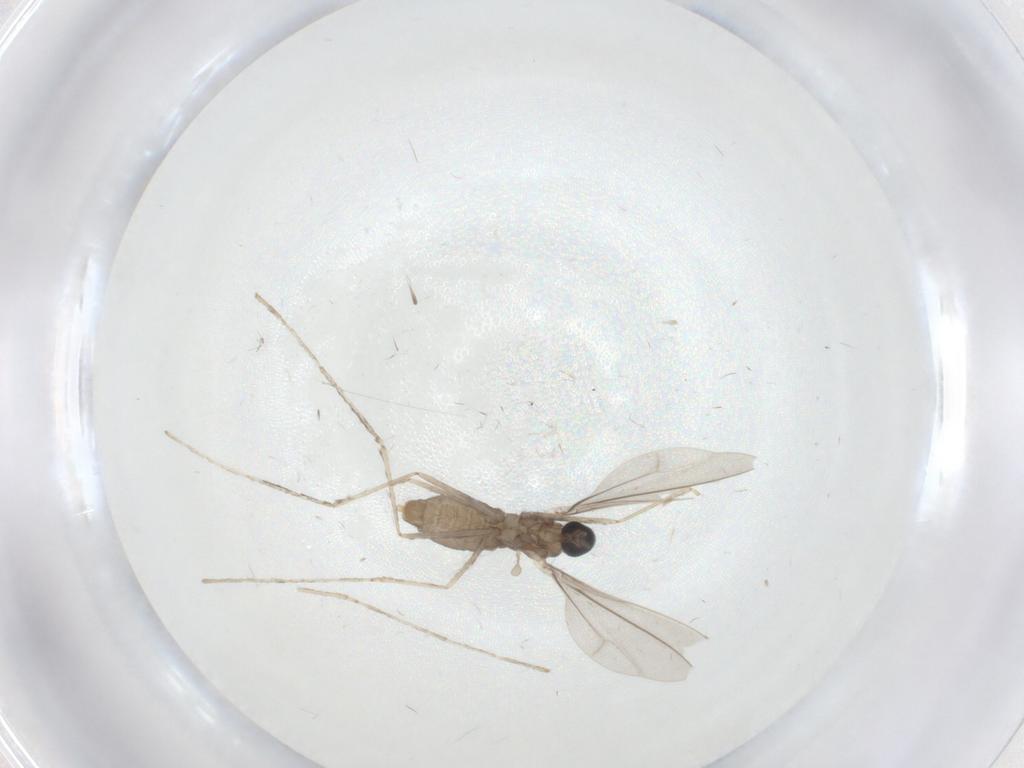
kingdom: Animalia
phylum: Arthropoda
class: Insecta
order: Diptera
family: Cecidomyiidae
